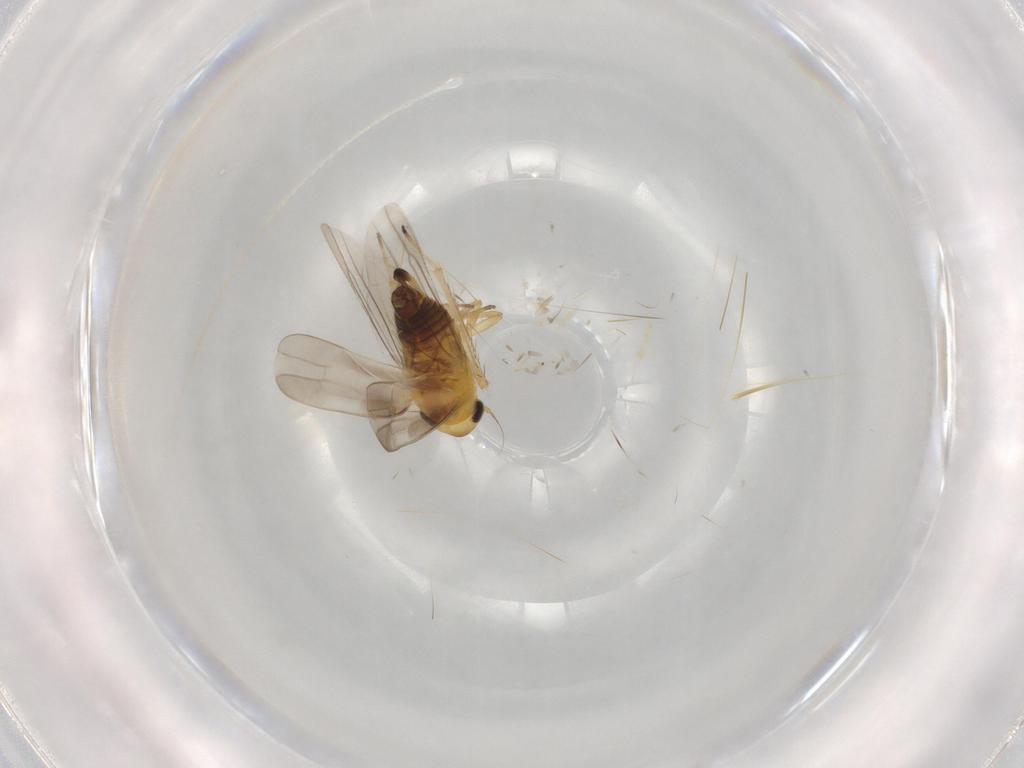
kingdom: Animalia
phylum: Arthropoda
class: Insecta
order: Hemiptera
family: Cicadellidae
